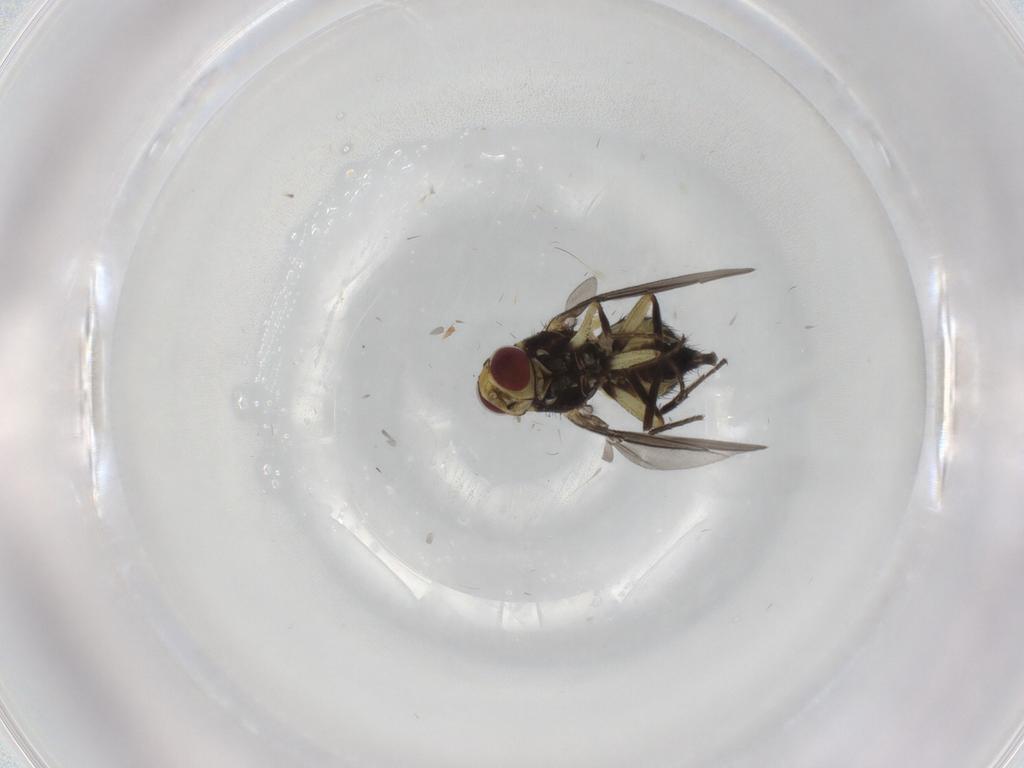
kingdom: Animalia
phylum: Arthropoda
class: Insecta
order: Diptera
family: Agromyzidae
